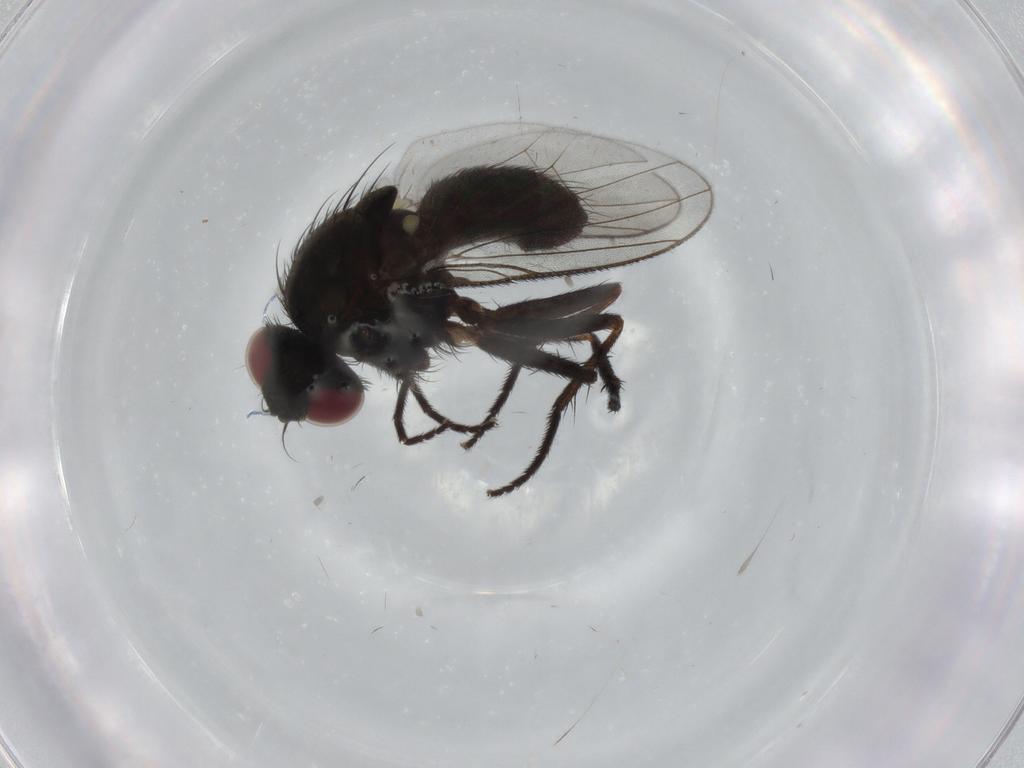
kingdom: Animalia
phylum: Arthropoda
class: Insecta
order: Diptera
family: Muscidae
